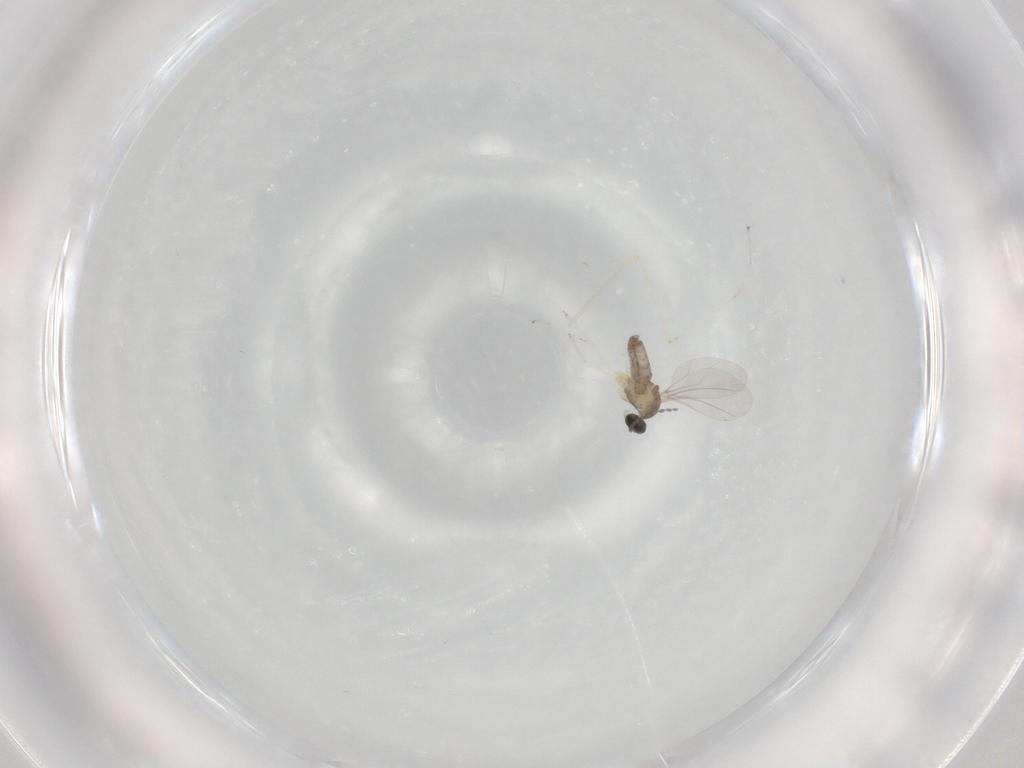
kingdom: Animalia
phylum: Arthropoda
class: Insecta
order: Diptera
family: Cecidomyiidae
